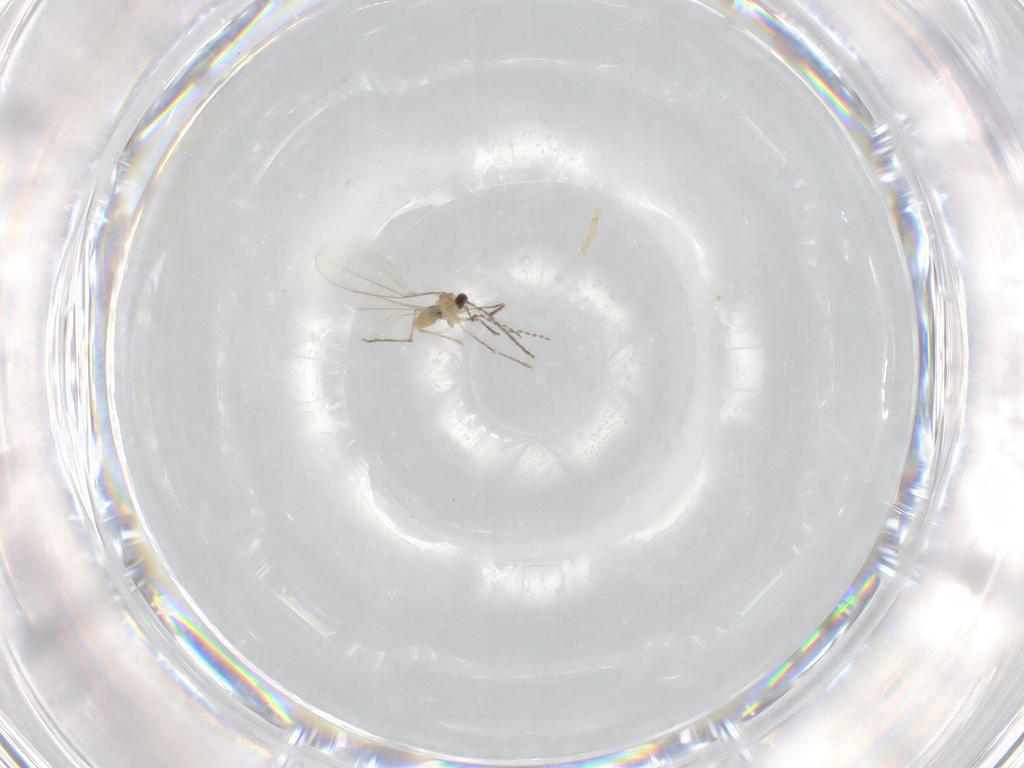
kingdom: Animalia
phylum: Arthropoda
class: Insecta
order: Diptera
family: Cecidomyiidae
